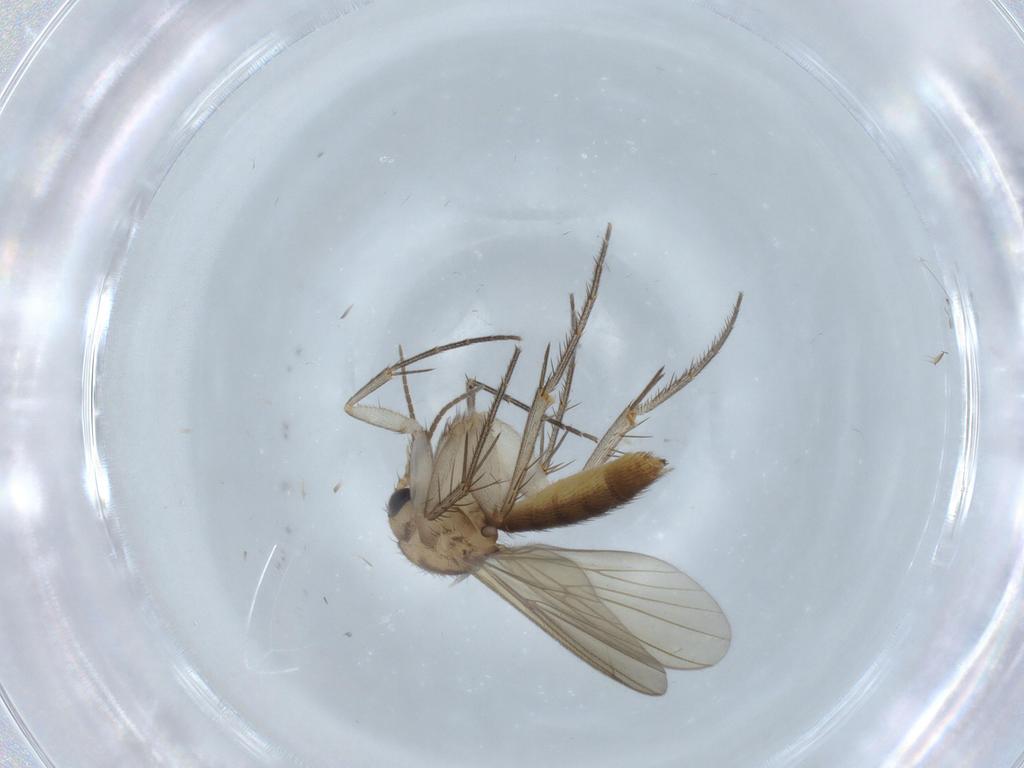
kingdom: Animalia
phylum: Arthropoda
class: Insecta
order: Diptera
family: Mycetophilidae
